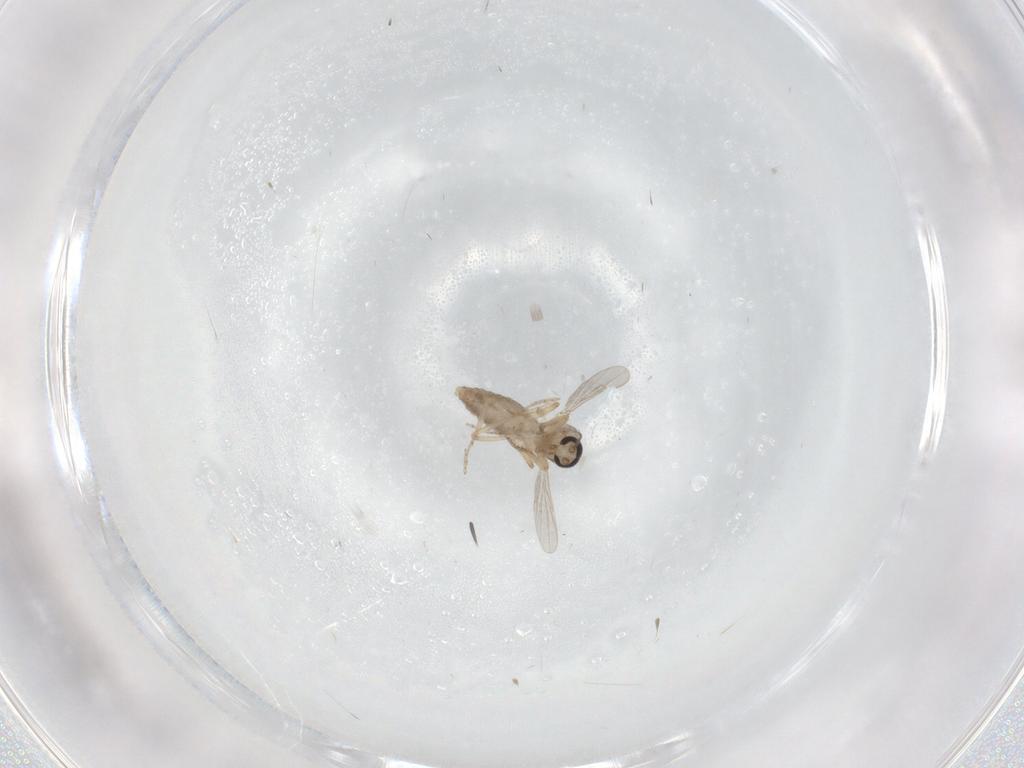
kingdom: Animalia
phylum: Arthropoda
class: Insecta
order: Diptera
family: Ceratopogonidae
